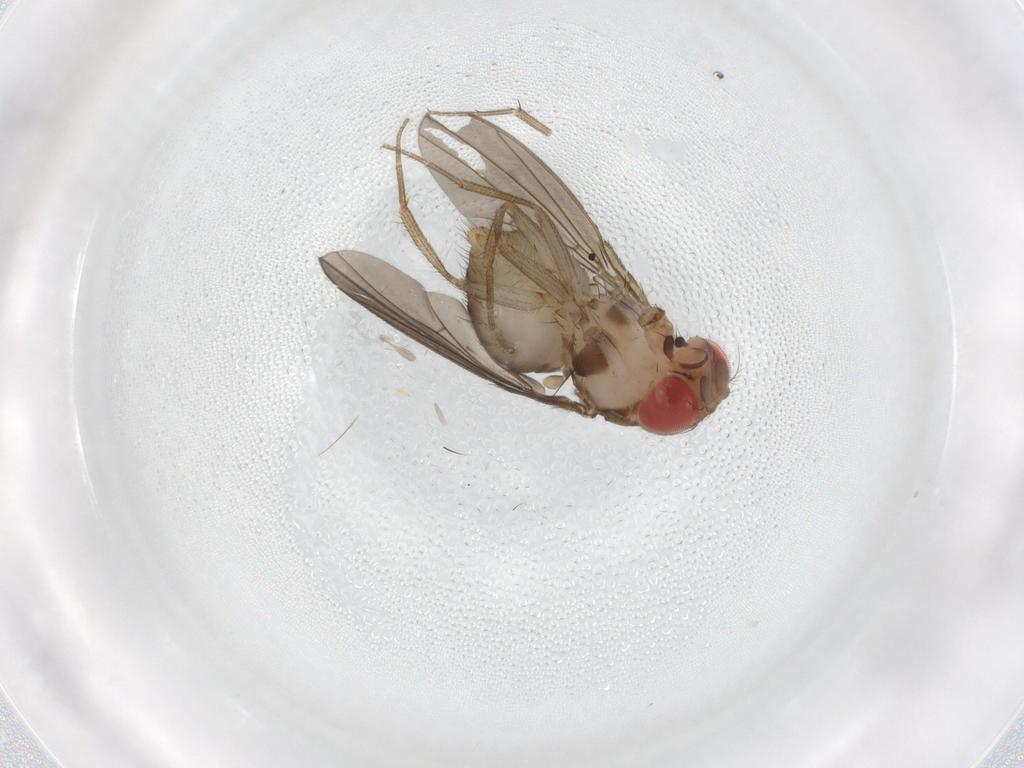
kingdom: Animalia
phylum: Arthropoda
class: Insecta
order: Diptera
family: Drosophilidae
